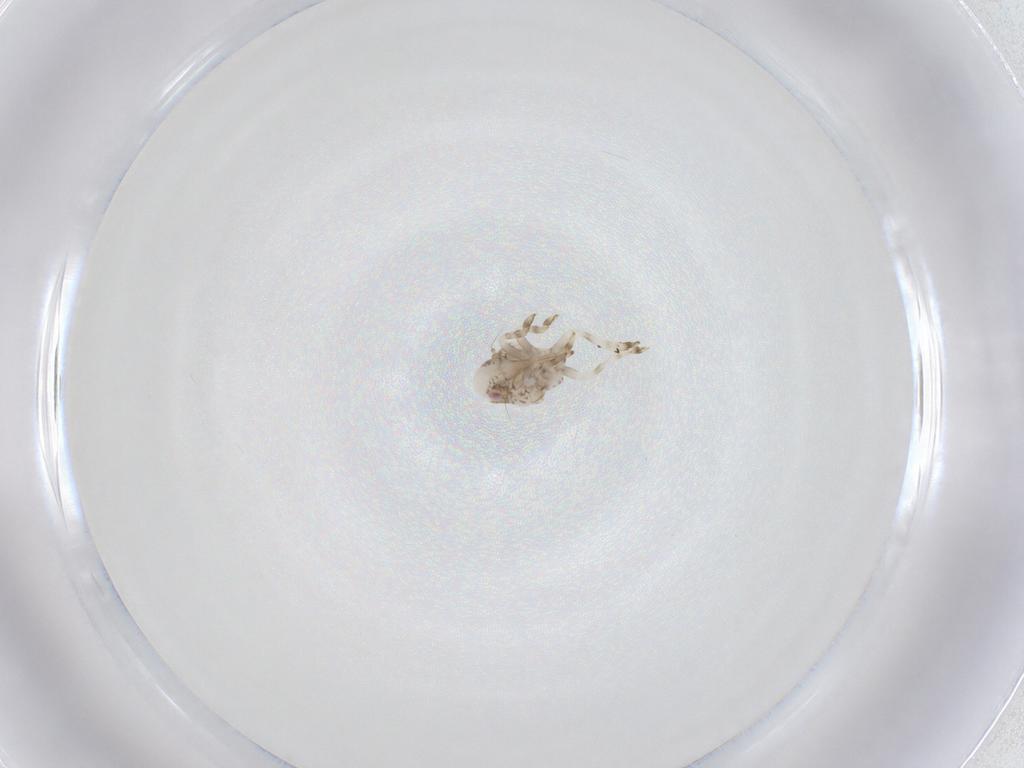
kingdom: Animalia
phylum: Arthropoda
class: Insecta
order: Hemiptera
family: Acanaloniidae
